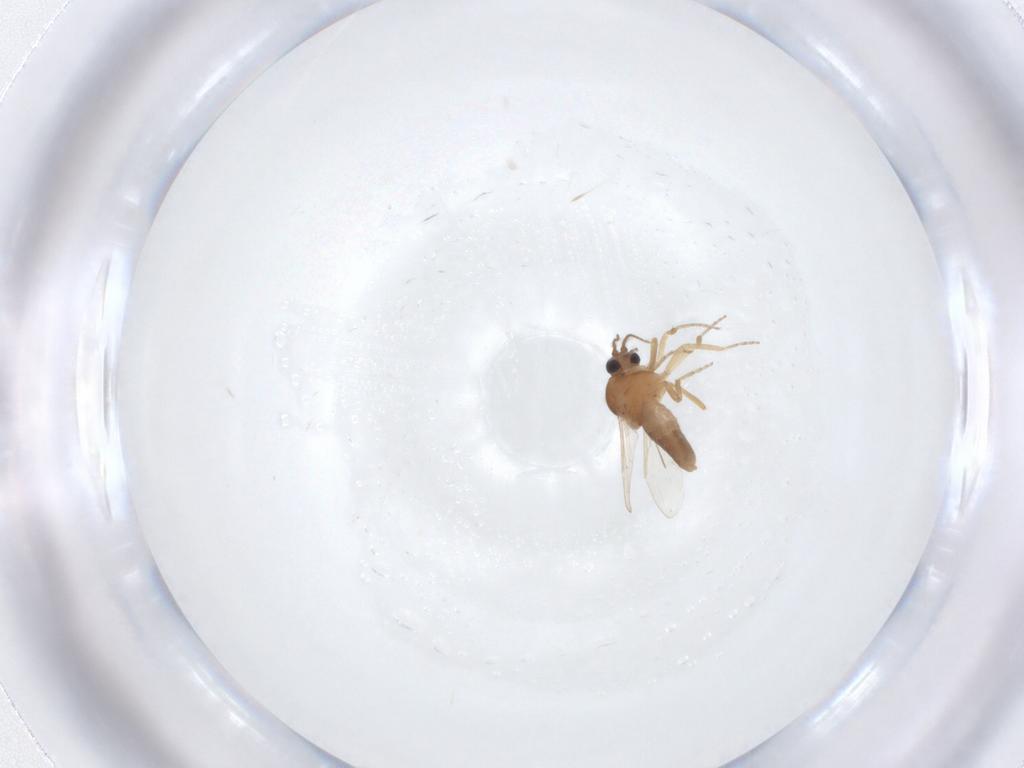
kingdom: Animalia
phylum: Arthropoda
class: Insecta
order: Diptera
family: Ceratopogonidae
